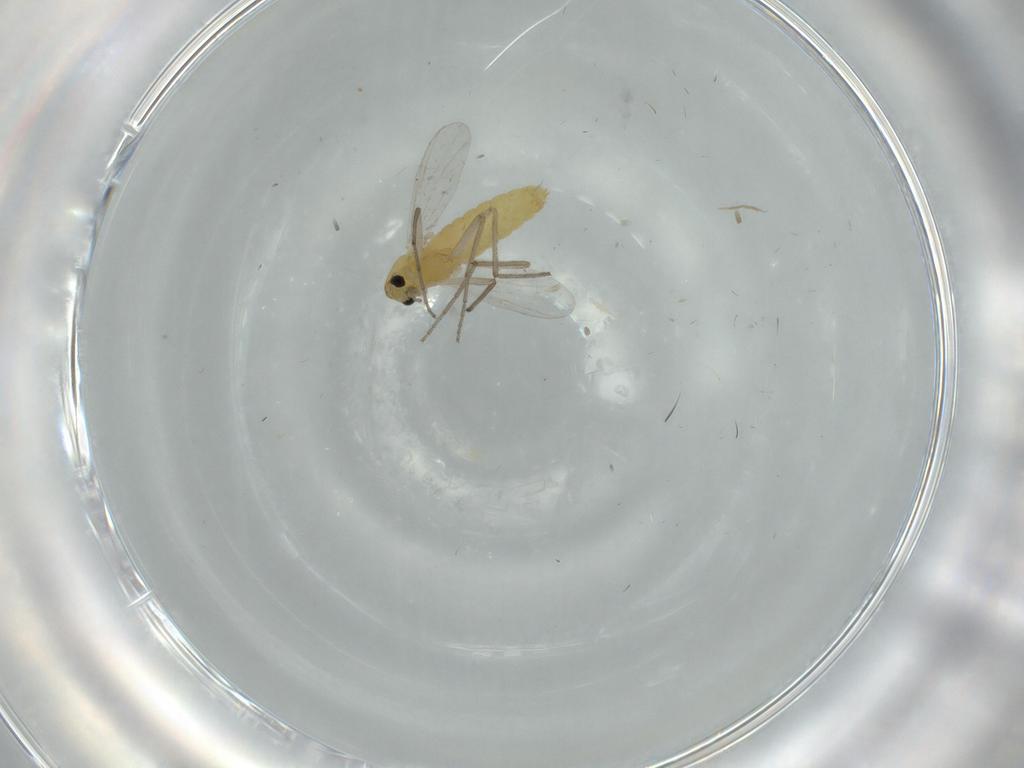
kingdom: Animalia
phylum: Arthropoda
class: Insecta
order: Diptera
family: Chironomidae
